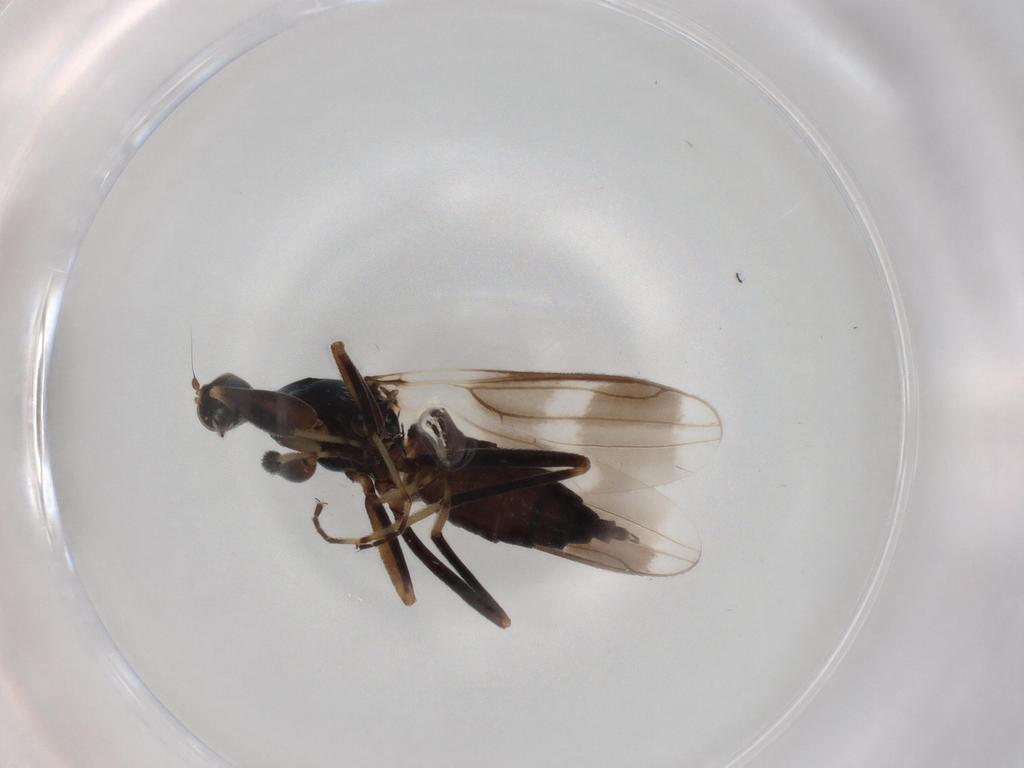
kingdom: Animalia
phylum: Arthropoda
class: Insecta
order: Diptera
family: Hybotidae
